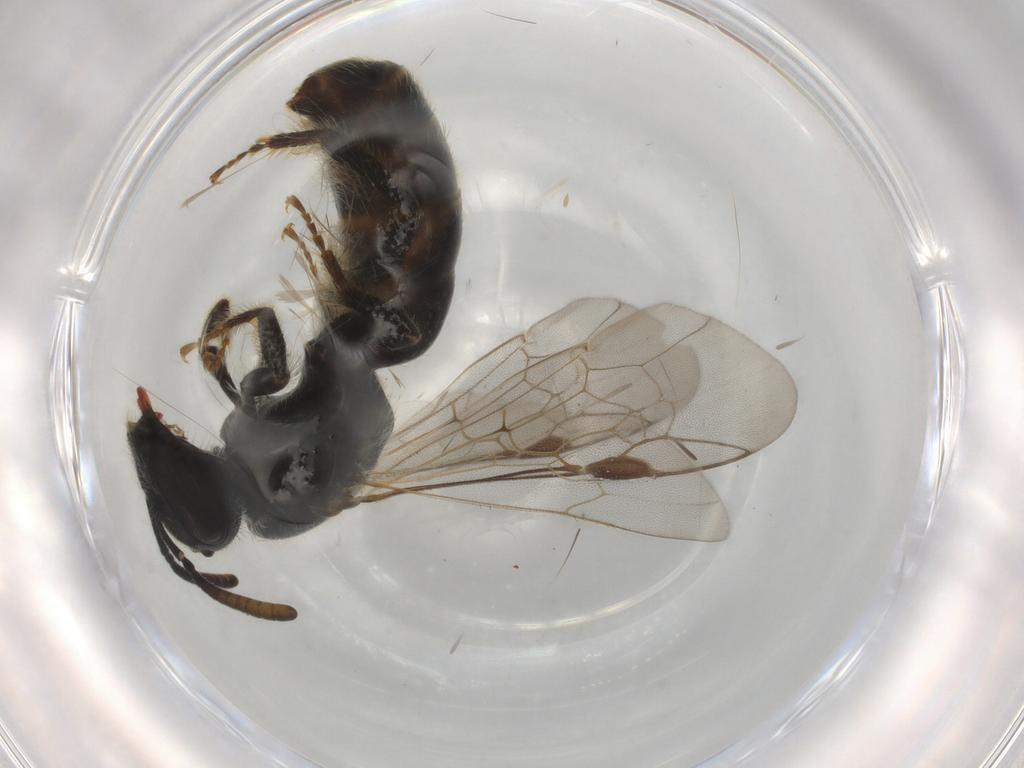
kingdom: Animalia
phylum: Arthropoda
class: Insecta
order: Hymenoptera
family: Halictidae
